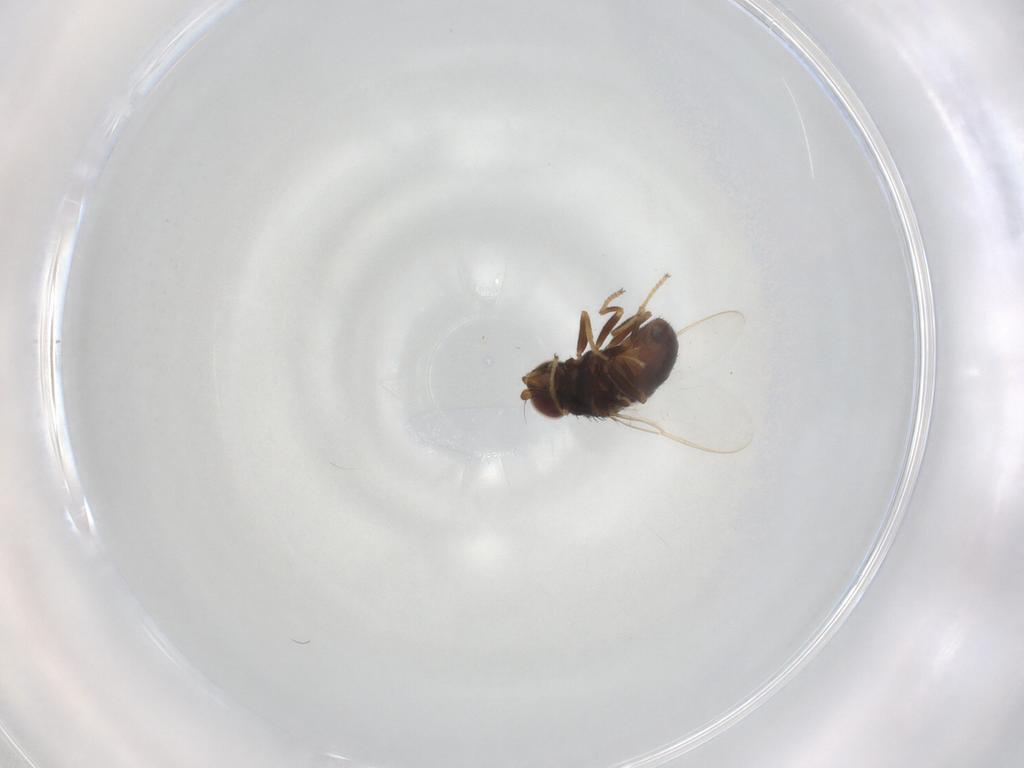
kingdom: Animalia
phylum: Arthropoda
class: Insecta
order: Diptera
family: Chloropidae
